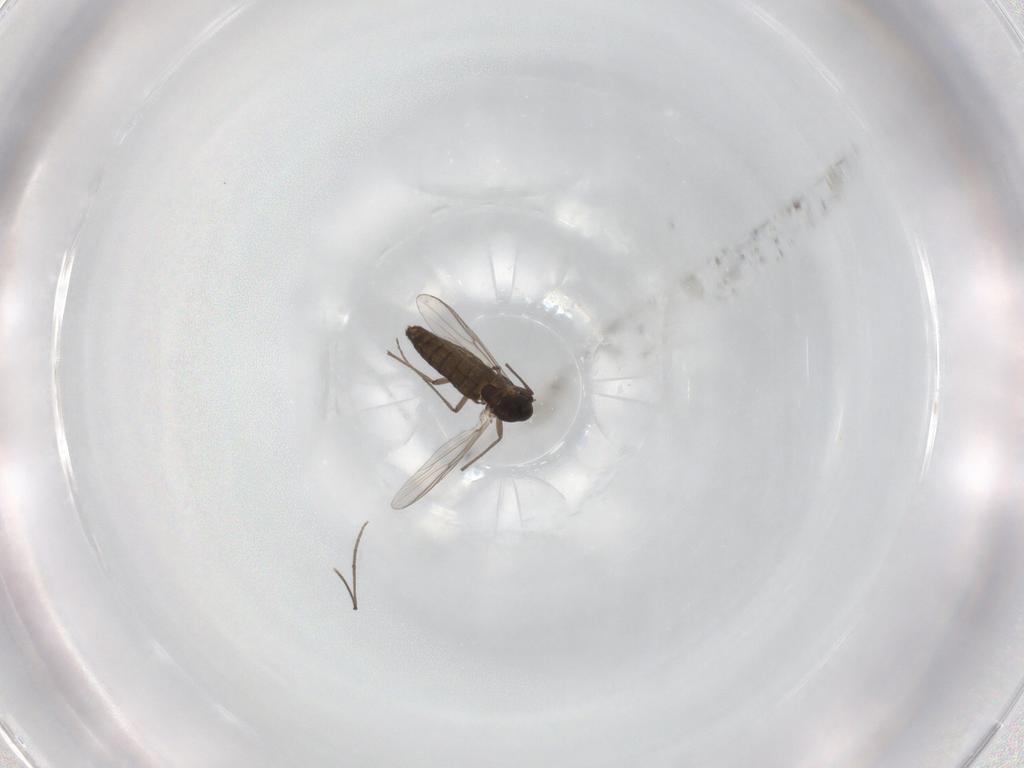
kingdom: Animalia
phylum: Arthropoda
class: Insecta
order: Diptera
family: Chironomidae
